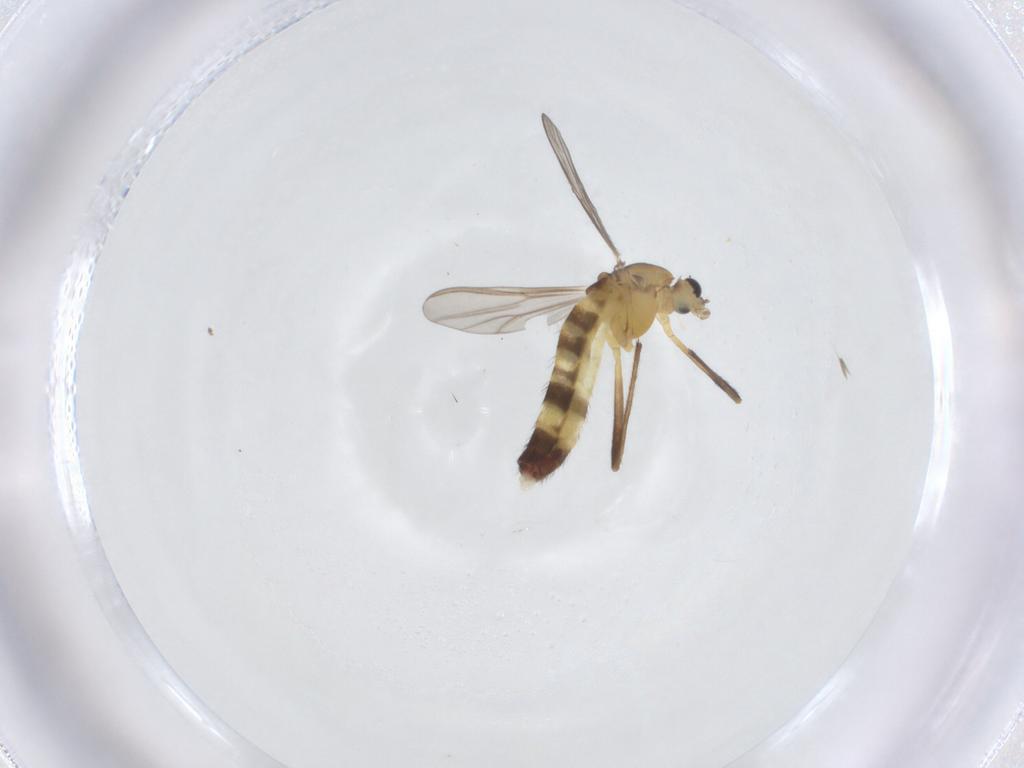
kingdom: Animalia
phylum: Arthropoda
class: Insecta
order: Diptera
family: Chironomidae
